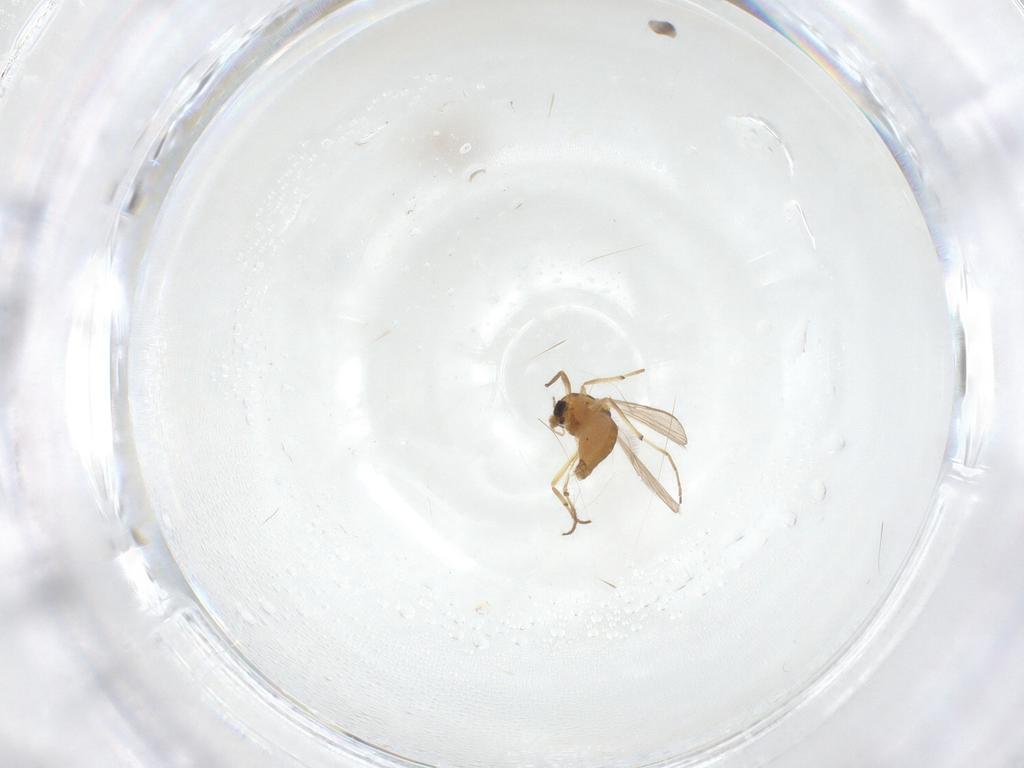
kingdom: Animalia
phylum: Arthropoda
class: Insecta
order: Diptera
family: Chironomidae
